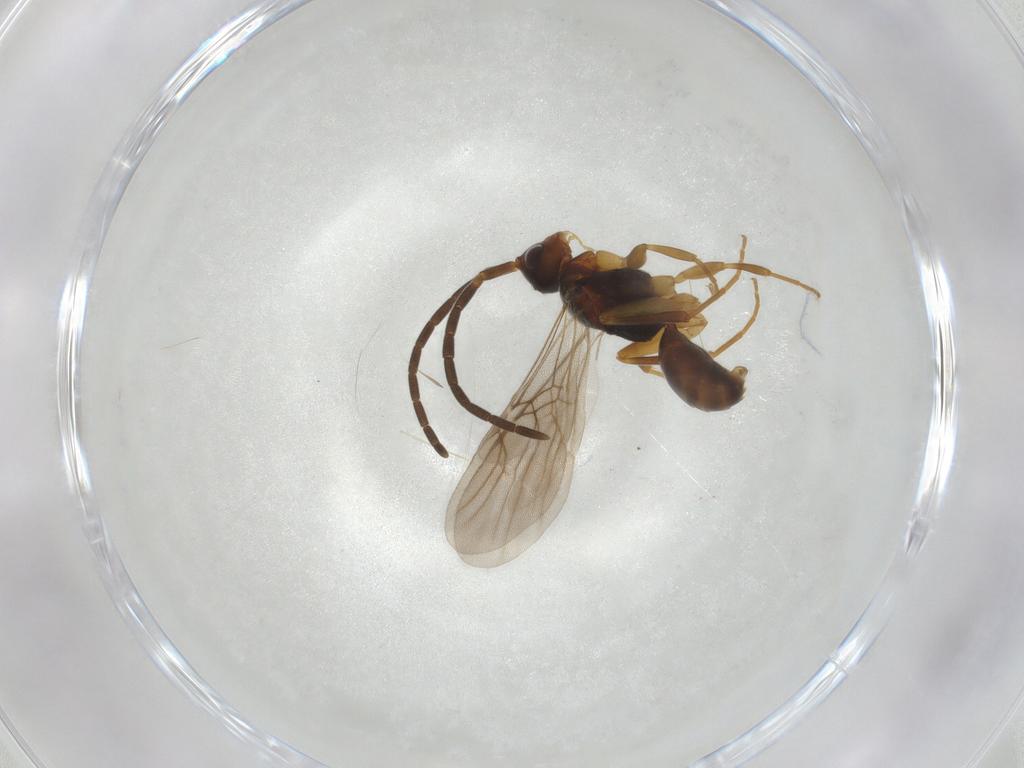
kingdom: Animalia
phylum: Arthropoda
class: Insecta
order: Hymenoptera
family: Embolemidae
